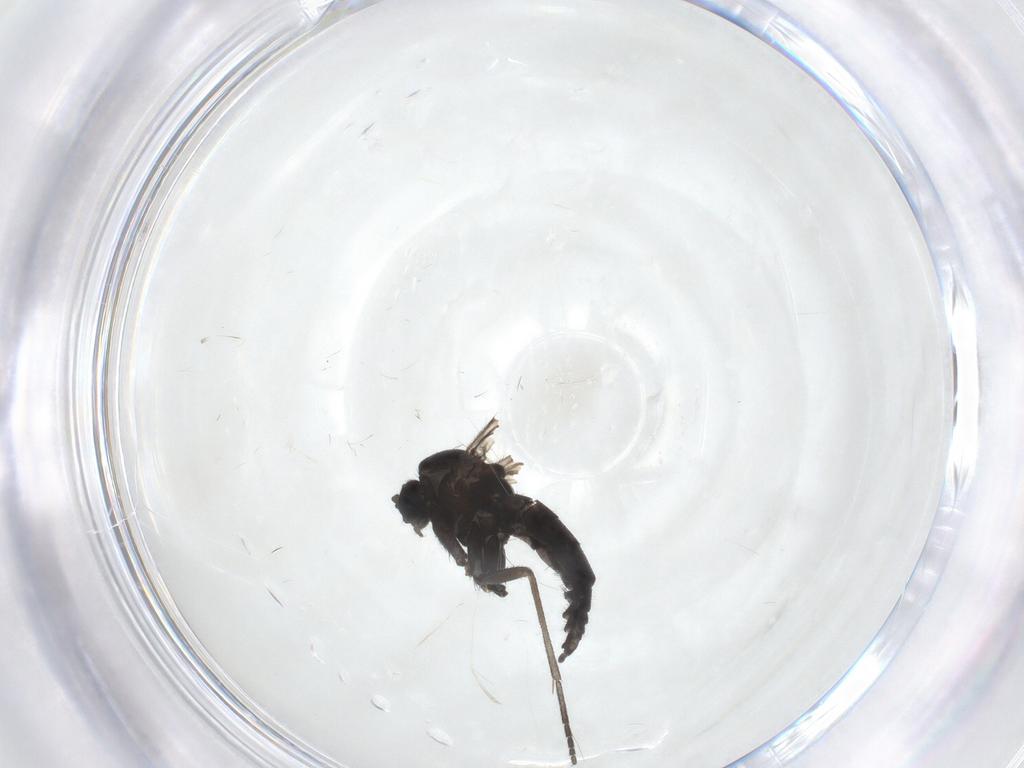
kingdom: Animalia
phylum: Arthropoda
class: Insecta
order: Diptera
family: Sciaridae
